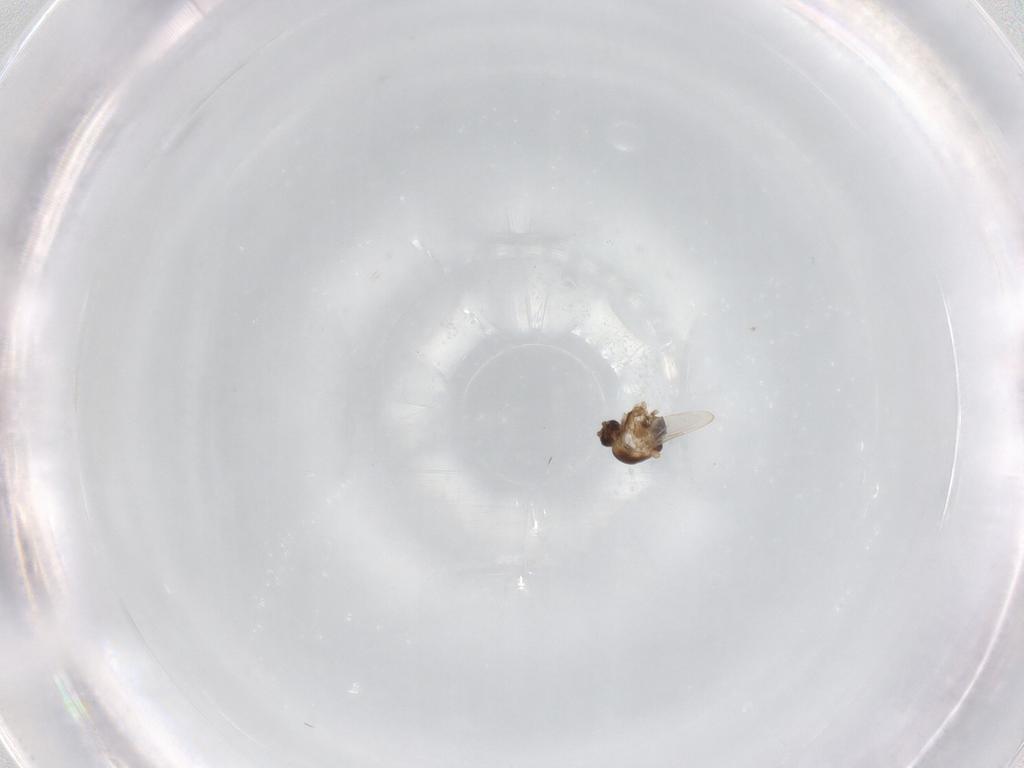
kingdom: Animalia
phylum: Arthropoda
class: Insecta
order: Diptera
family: Ceratopogonidae
